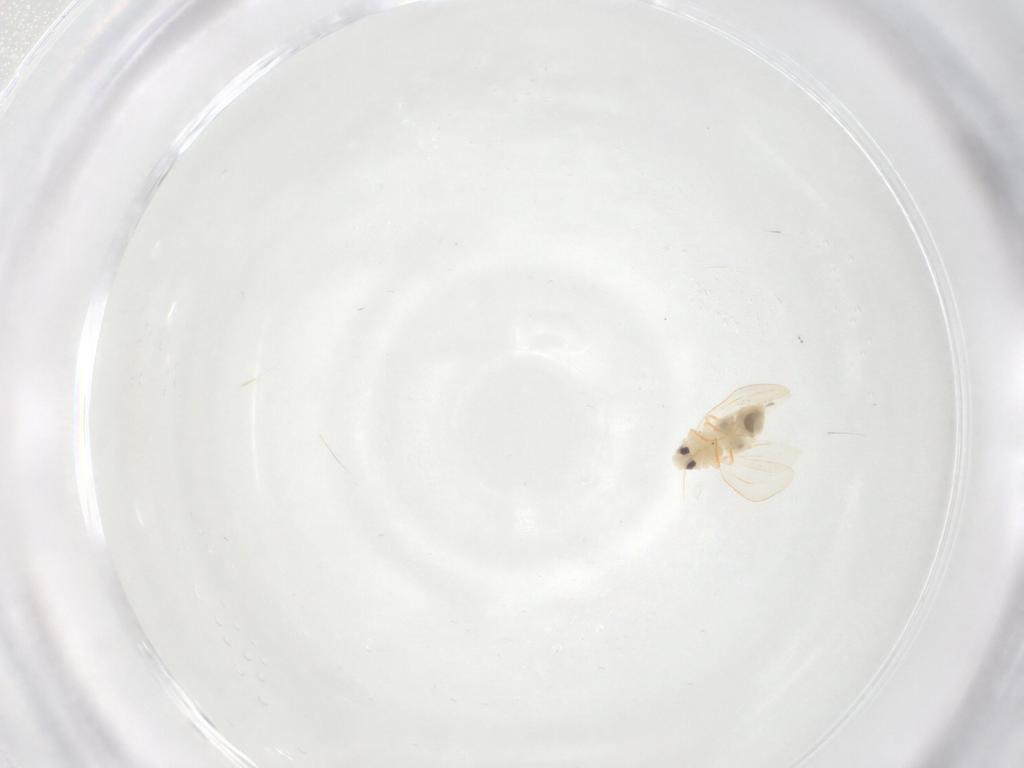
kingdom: Animalia
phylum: Arthropoda
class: Insecta
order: Hemiptera
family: Aleyrodidae
